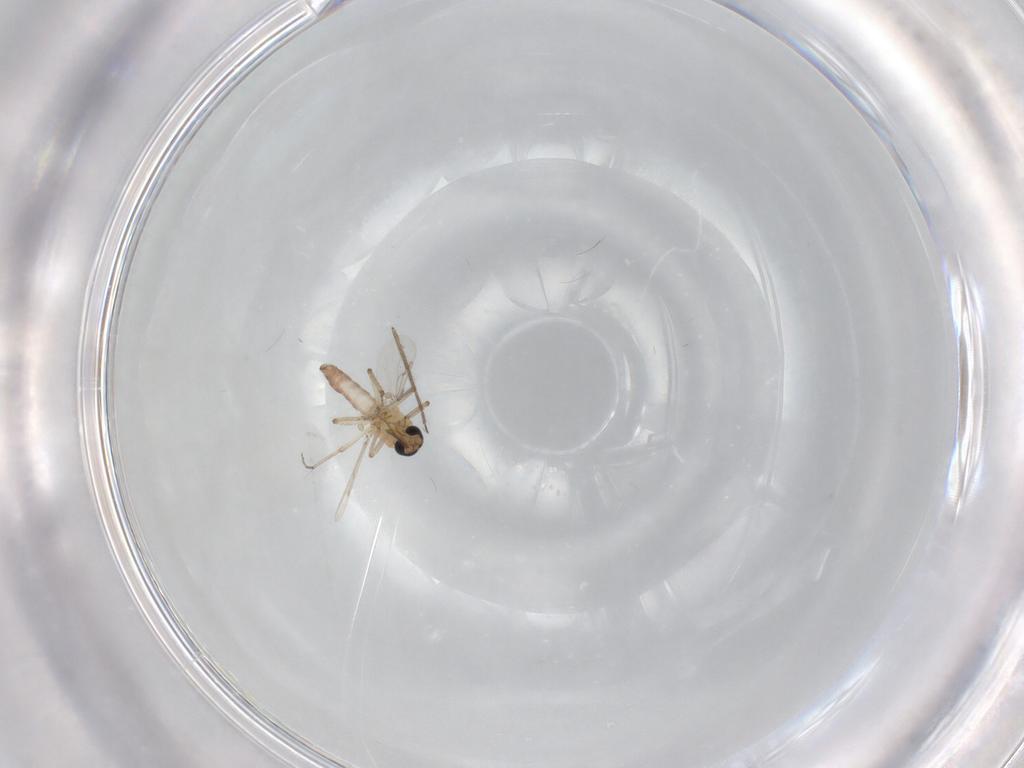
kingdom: Animalia
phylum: Arthropoda
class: Insecta
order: Diptera
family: Ceratopogonidae
